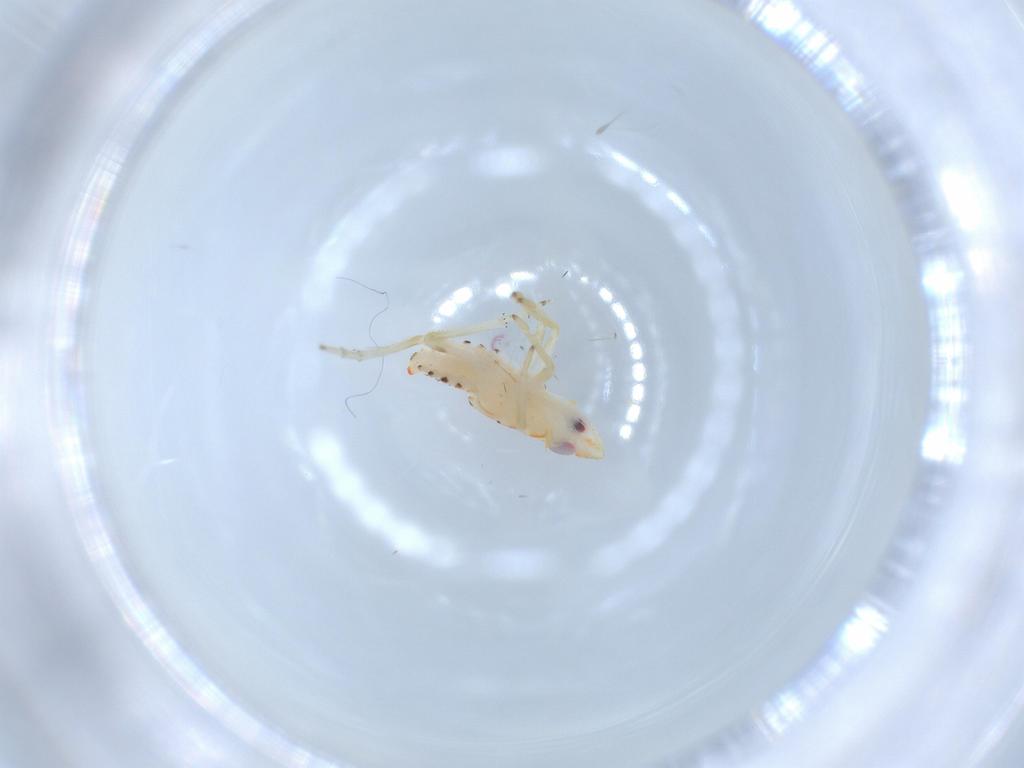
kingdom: Animalia
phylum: Arthropoda
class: Insecta
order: Hemiptera
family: Tropiduchidae
